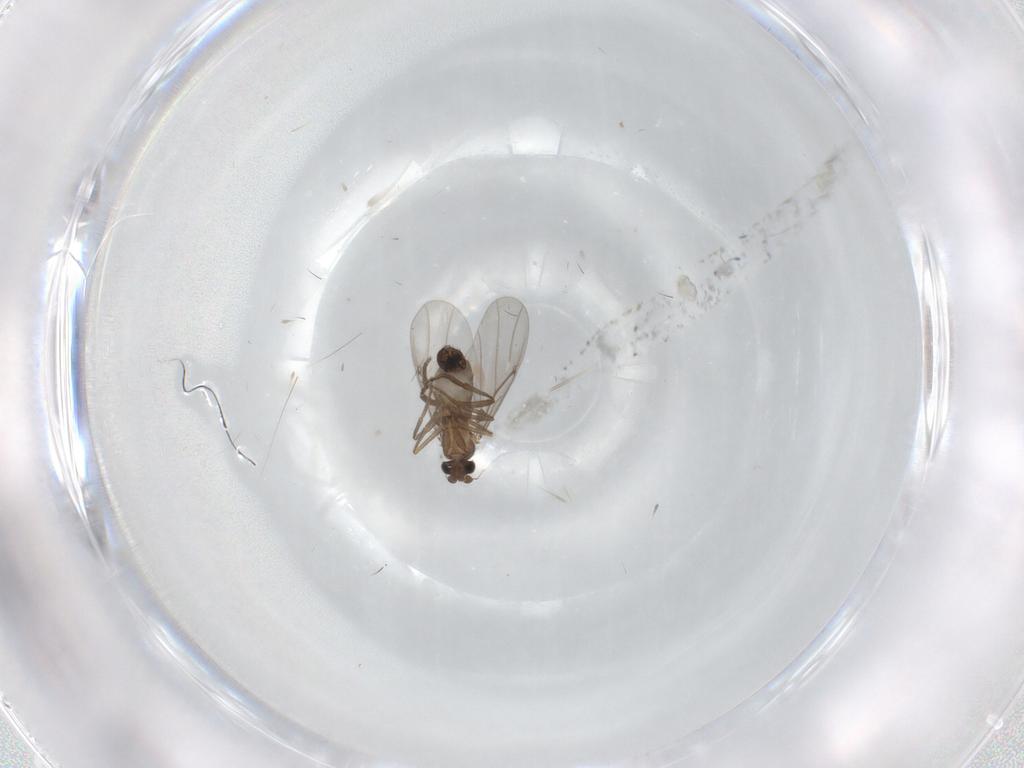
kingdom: Animalia
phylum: Arthropoda
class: Insecta
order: Diptera
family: Phoridae
